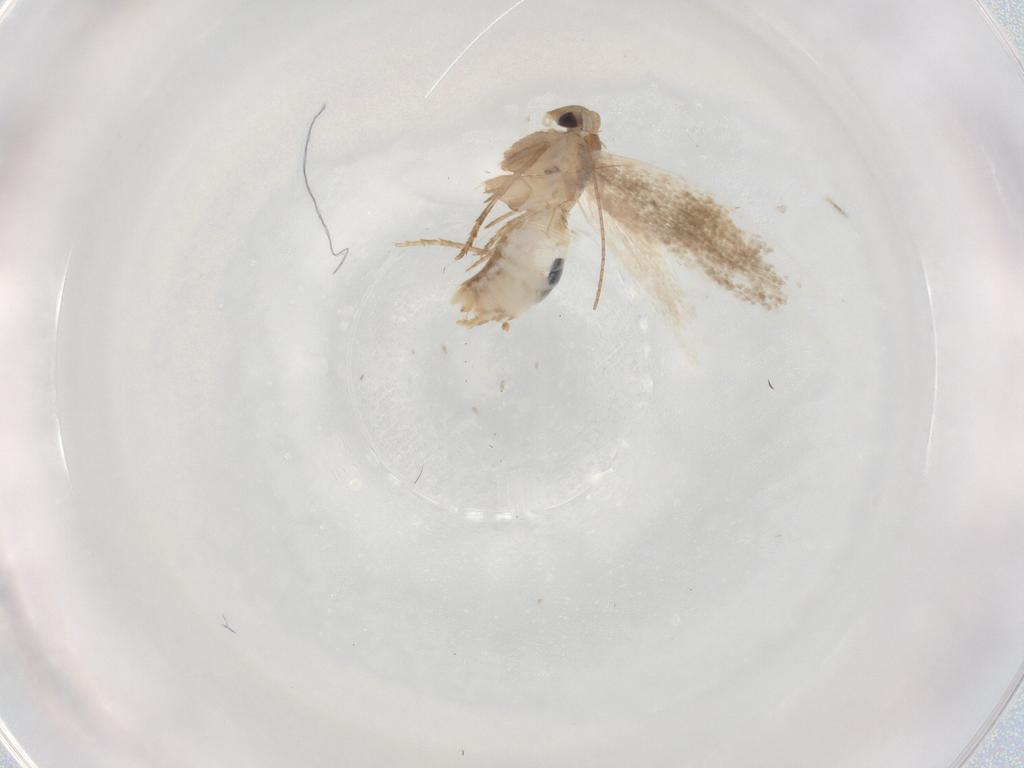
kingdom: Animalia
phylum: Arthropoda
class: Insecta
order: Lepidoptera
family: Bucculatricidae
